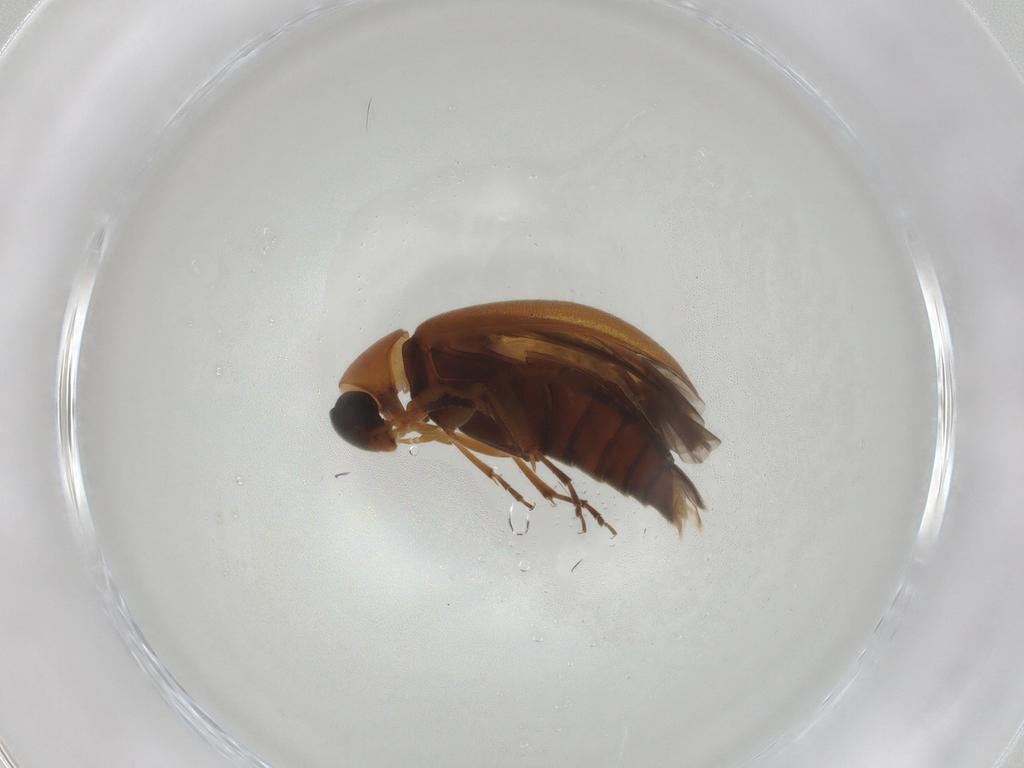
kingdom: Animalia
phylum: Arthropoda
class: Insecta
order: Coleoptera
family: Scraptiidae
